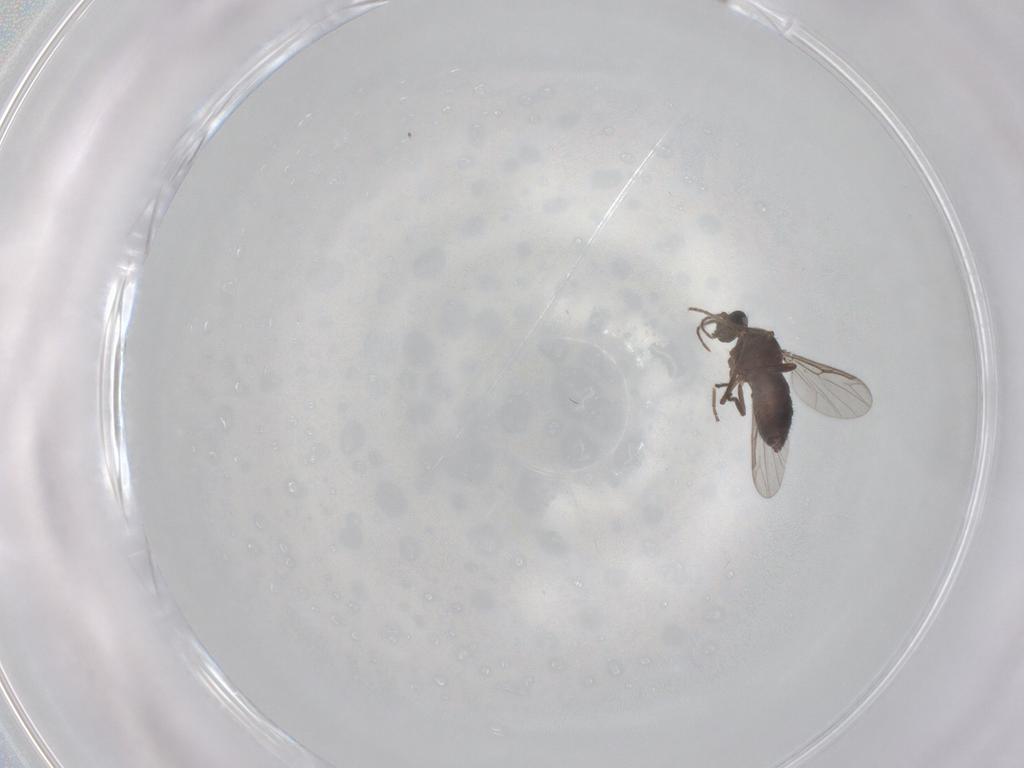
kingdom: Animalia
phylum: Arthropoda
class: Insecta
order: Diptera
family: Ceratopogonidae
